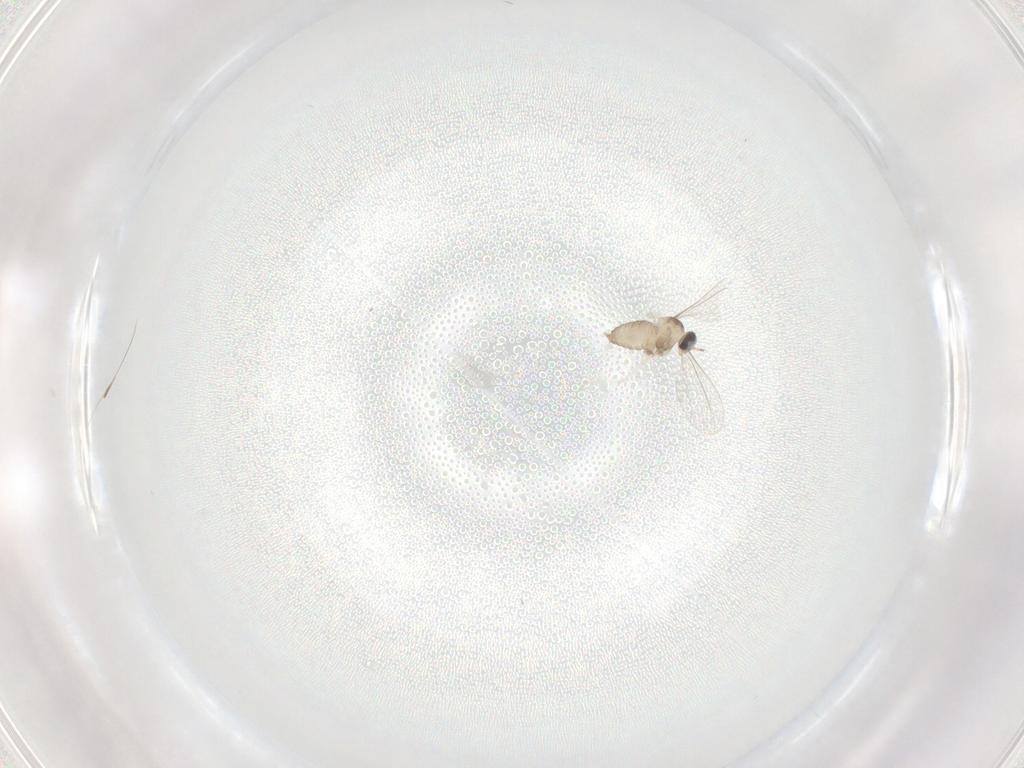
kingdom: Animalia
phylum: Arthropoda
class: Insecta
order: Diptera
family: Cecidomyiidae
